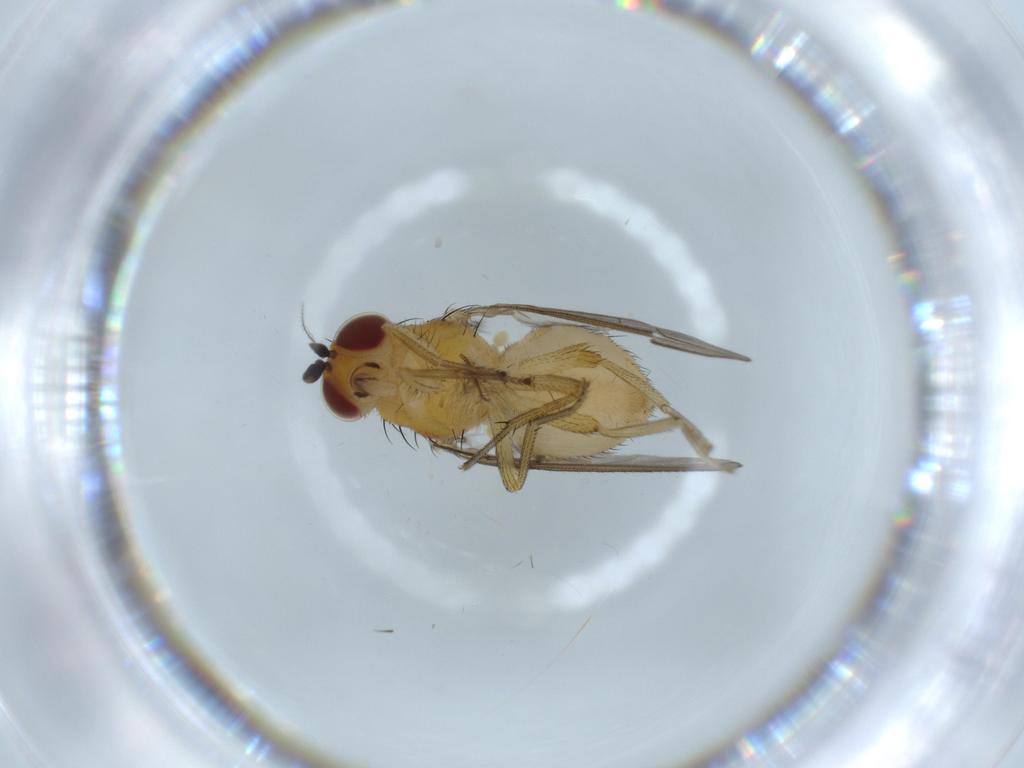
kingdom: Animalia
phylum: Arthropoda
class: Insecta
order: Diptera
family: Lauxaniidae
